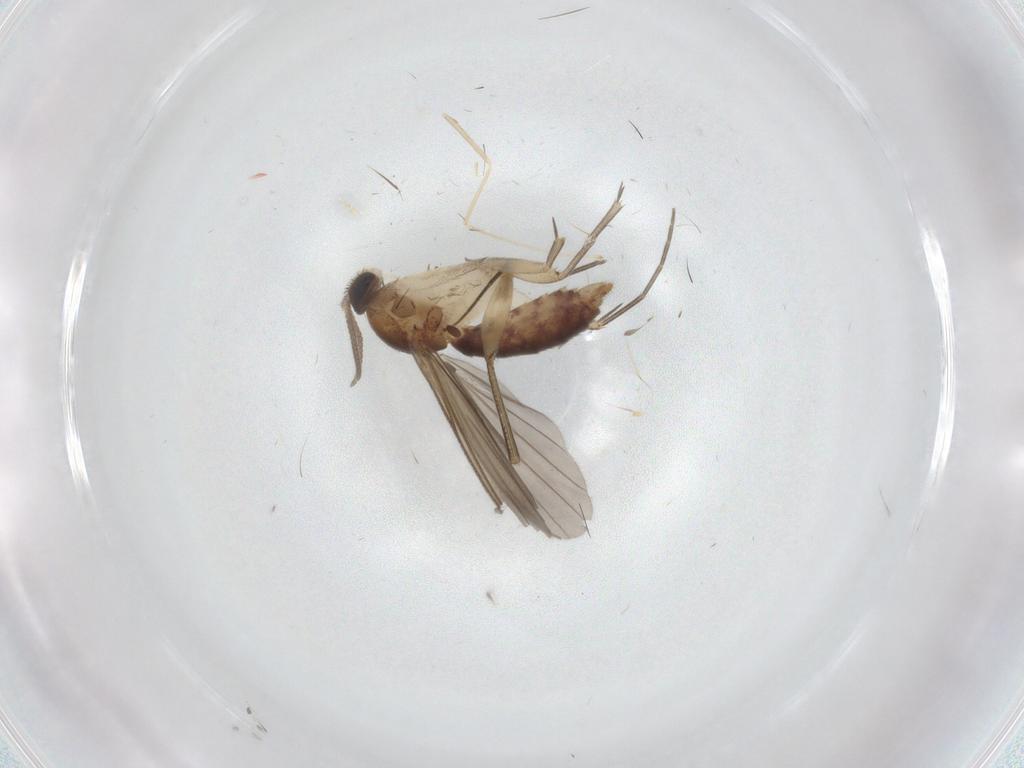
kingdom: Animalia
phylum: Arthropoda
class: Insecta
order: Diptera
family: Mycetophilidae
